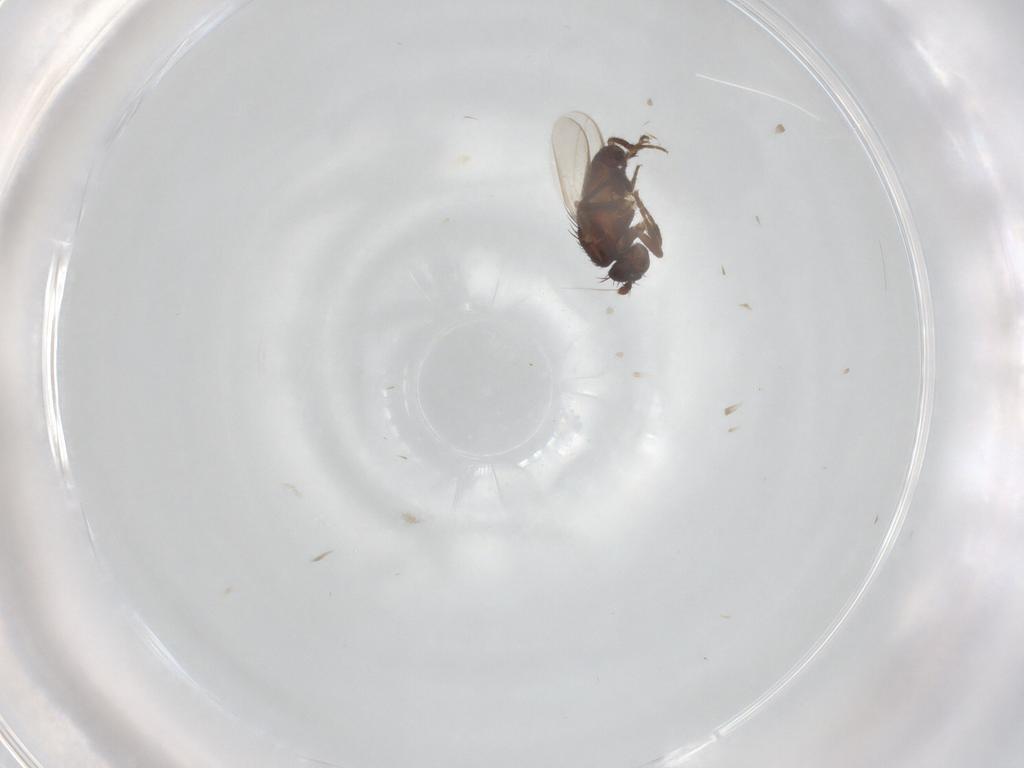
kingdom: Animalia
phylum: Arthropoda
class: Insecta
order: Diptera
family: Sphaeroceridae
